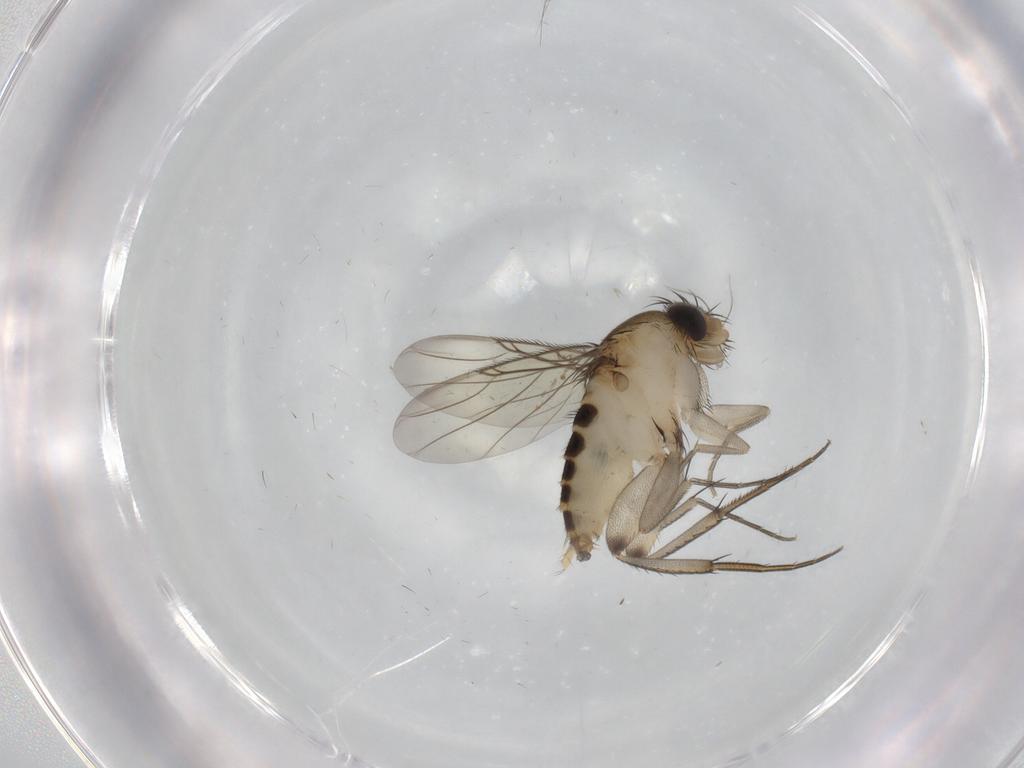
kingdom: Animalia
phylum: Arthropoda
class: Insecta
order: Diptera
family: Phoridae
